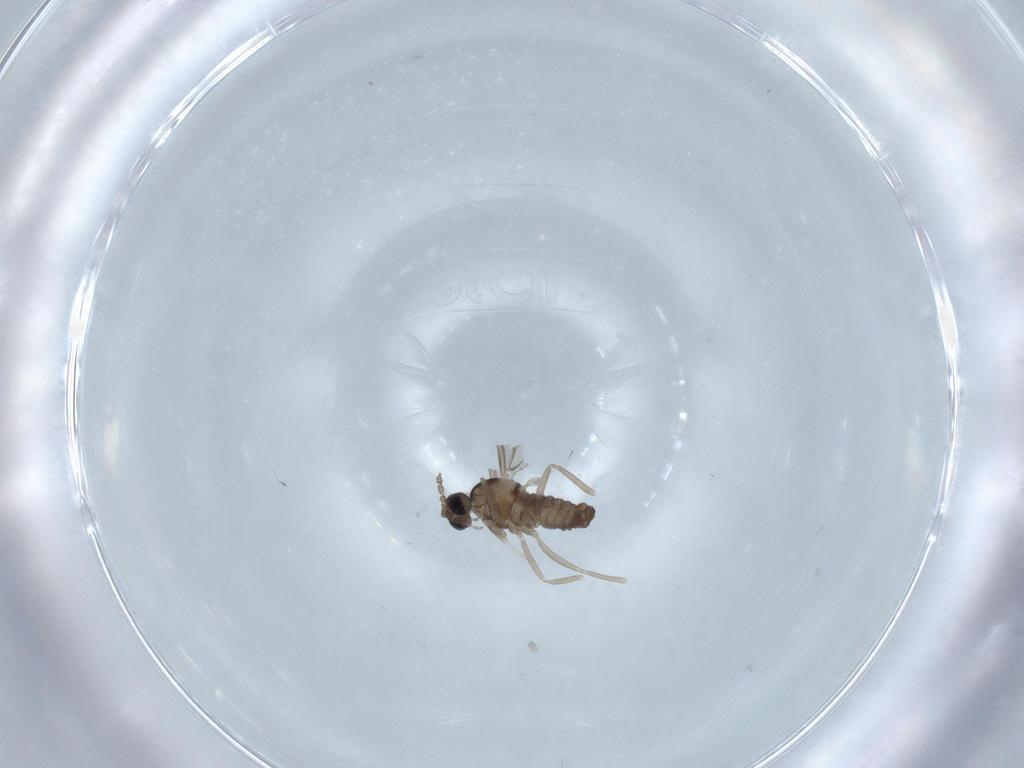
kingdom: Animalia
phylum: Arthropoda
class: Insecta
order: Diptera
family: Cecidomyiidae
